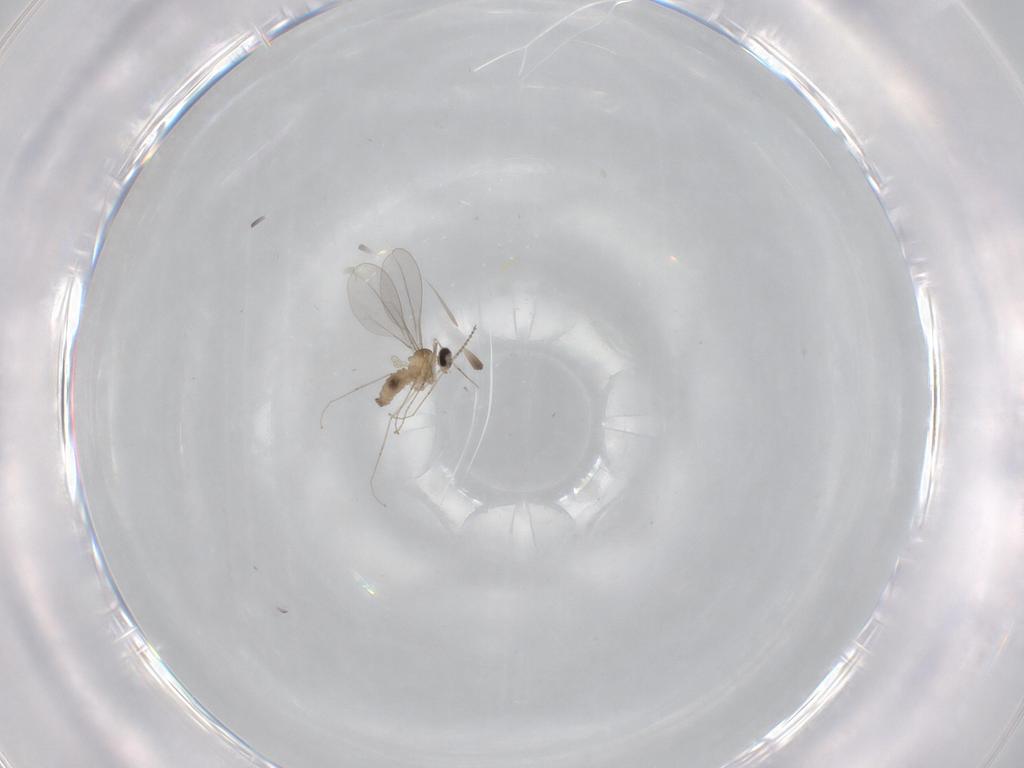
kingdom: Animalia
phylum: Arthropoda
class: Insecta
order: Diptera
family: Cecidomyiidae
